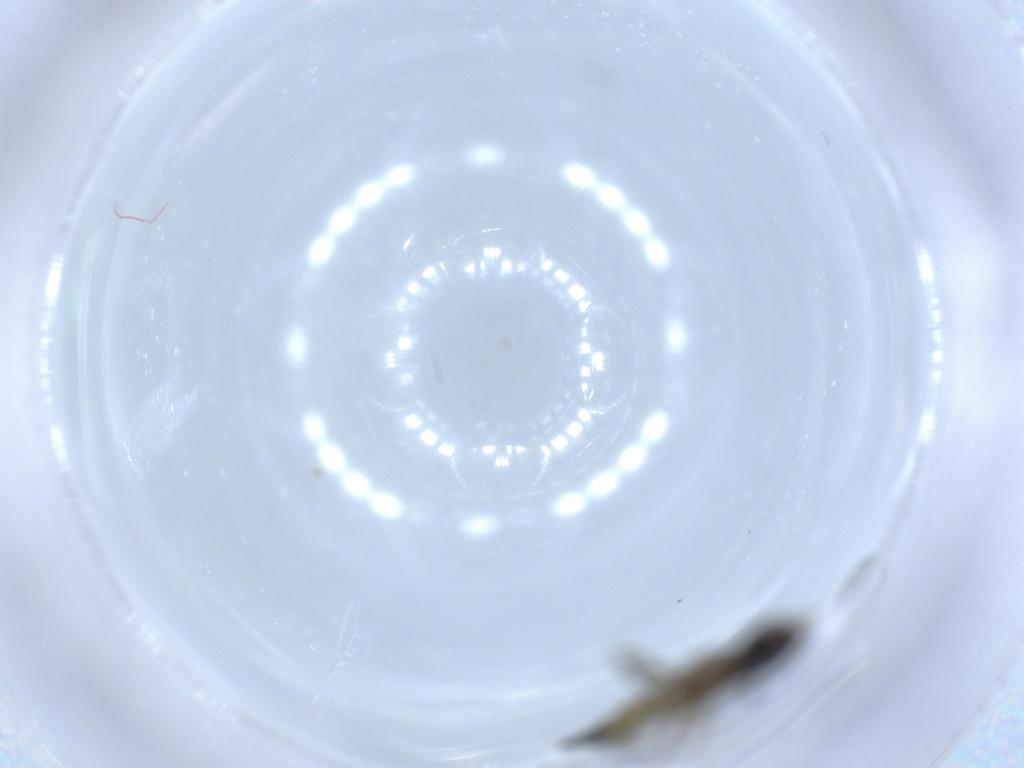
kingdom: Animalia
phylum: Arthropoda
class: Insecta
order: Diptera
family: Sciaridae
